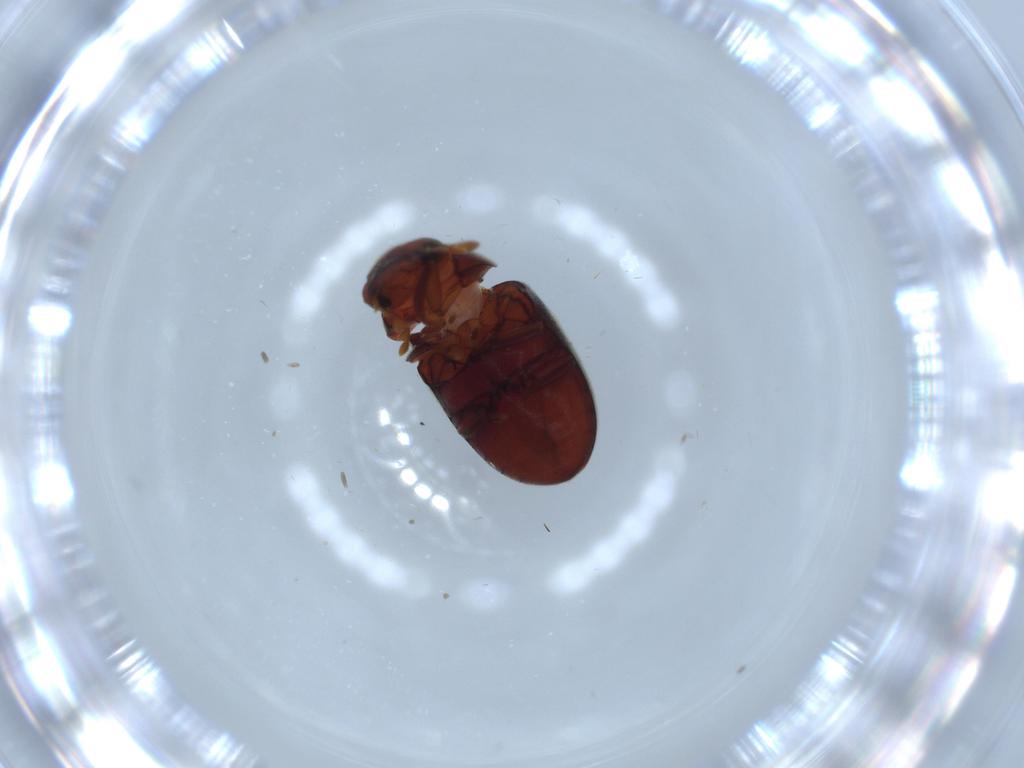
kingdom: Animalia
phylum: Arthropoda
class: Insecta
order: Coleoptera
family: Ptinidae
